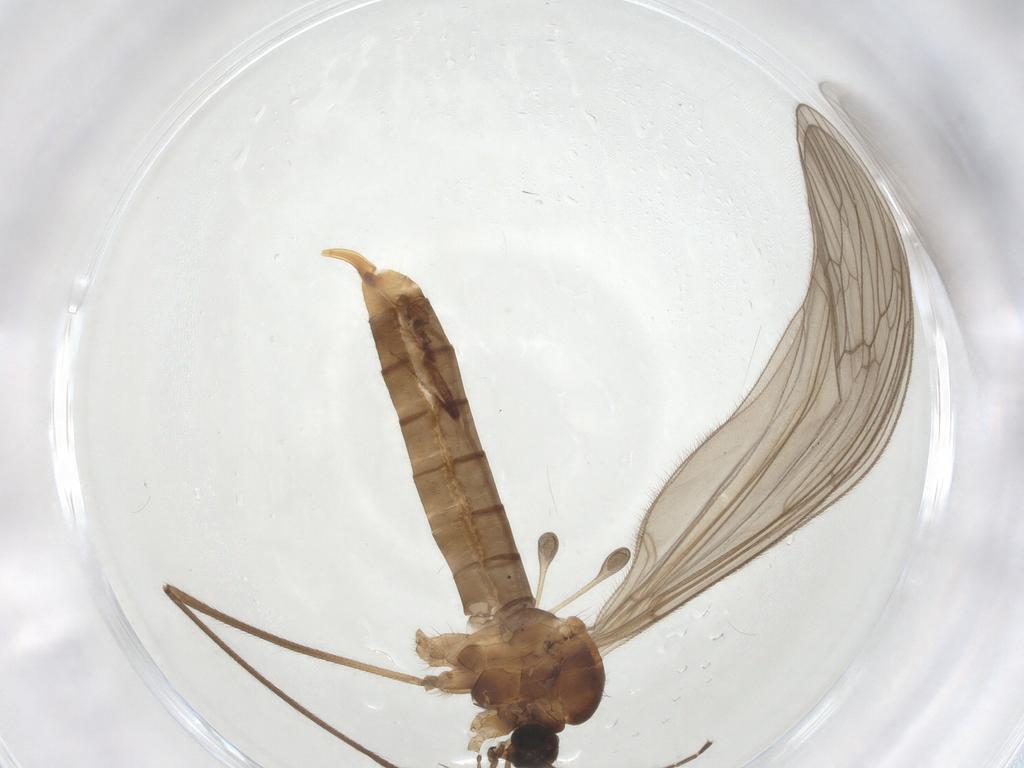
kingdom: Animalia
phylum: Arthropoda
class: Insecta
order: Diptera
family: Trichoceridae
